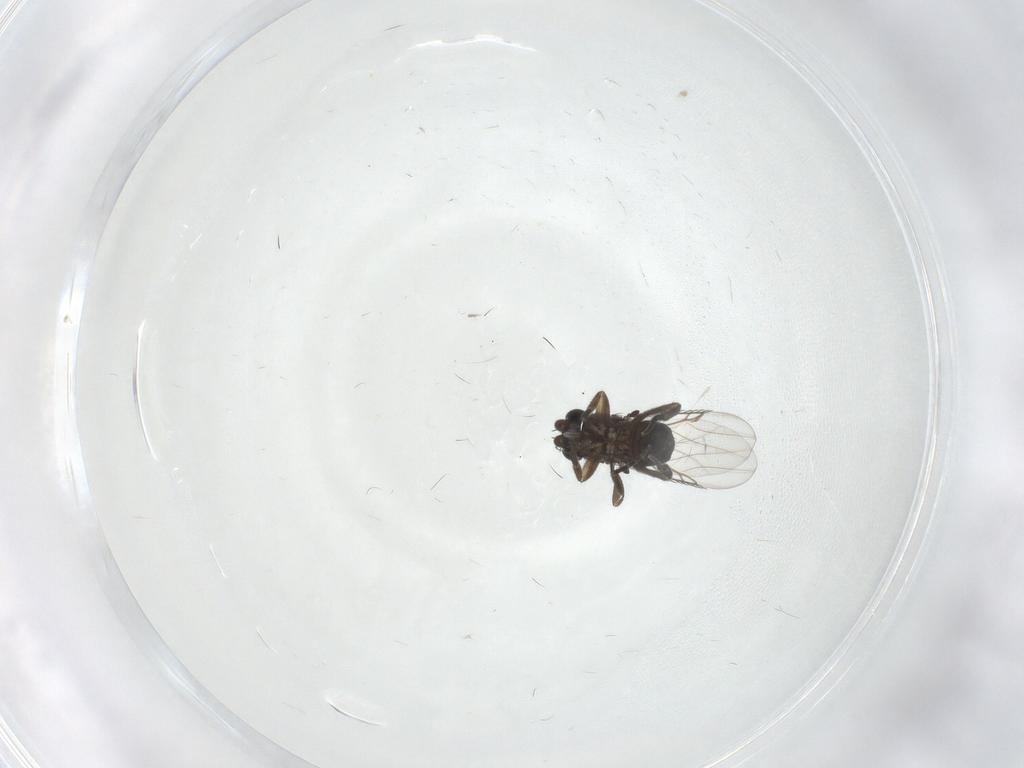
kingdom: Animalia
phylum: Arthropoda
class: Insecta
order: Diptera
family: Phoridae
